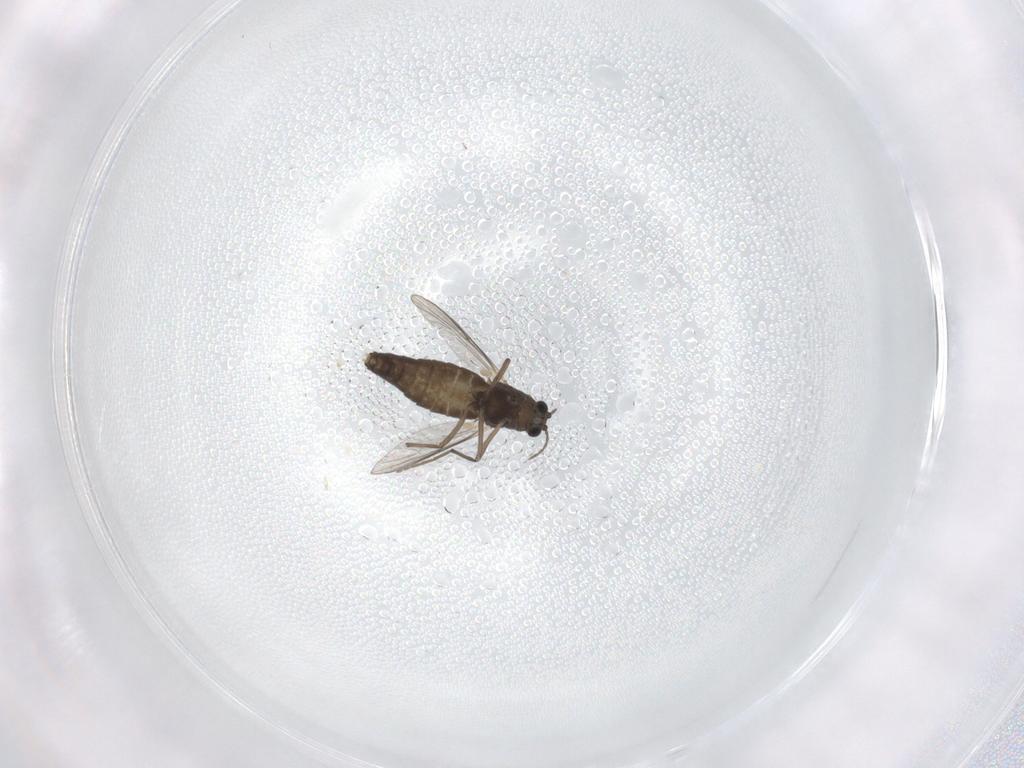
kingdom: Animalia
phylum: Arthropoda
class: Insecta
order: Diptera
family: Chironomidae
